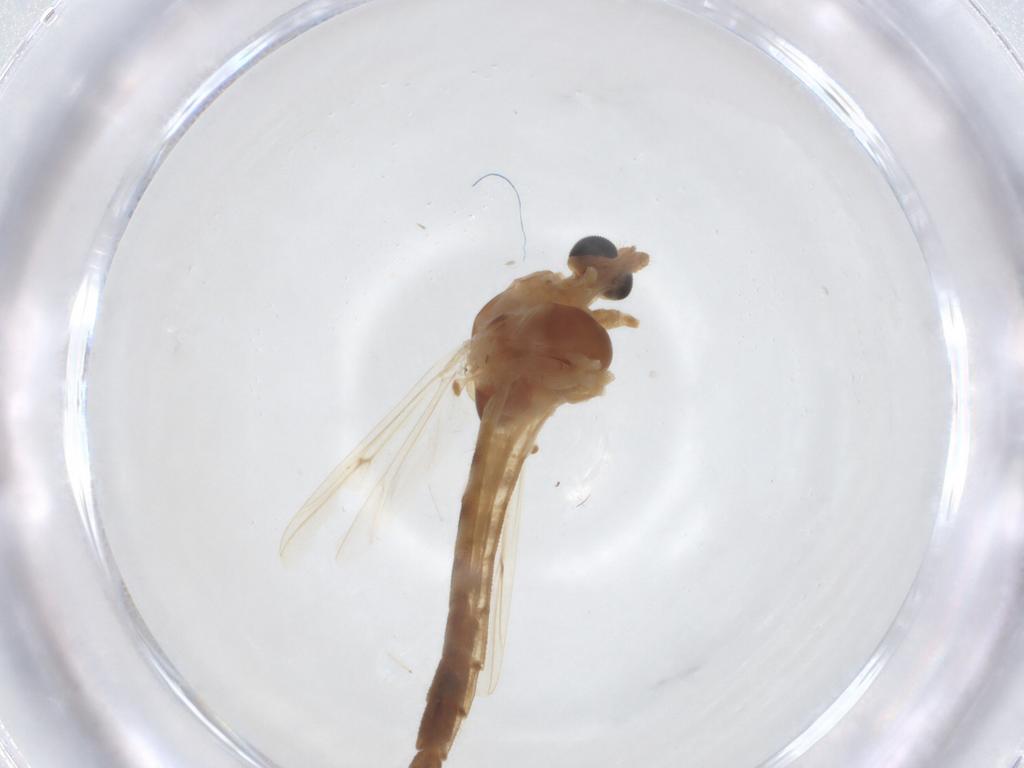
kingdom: Animalia
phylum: Arthropoda
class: Insecta
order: Diptera
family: Chironomidae
